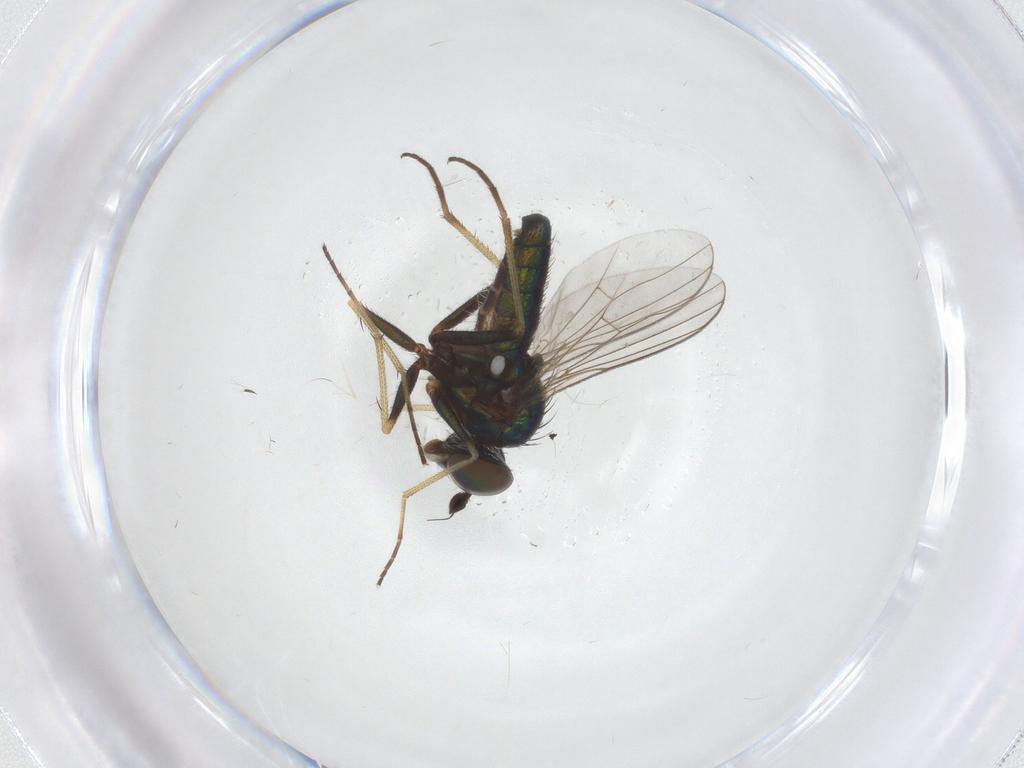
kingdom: Animalia
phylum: Arthropoda
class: Insecta
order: Diptera
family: Dolichopodidae
